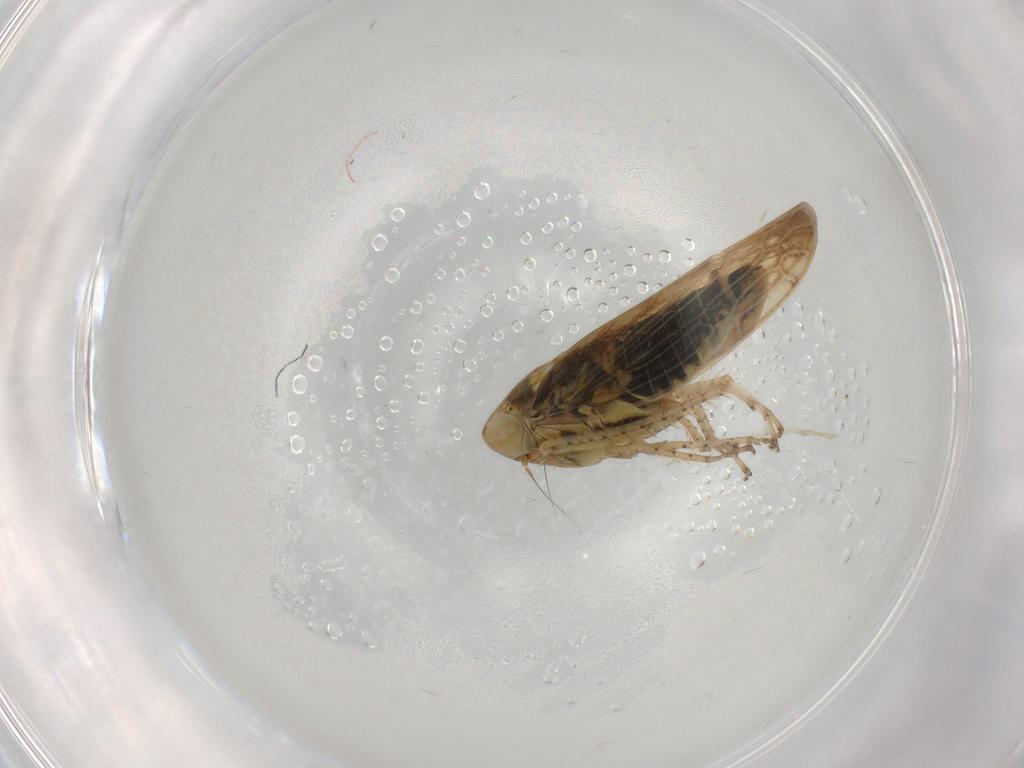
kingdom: Animalia
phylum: Arthropoda
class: Insecta
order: Hemiptera
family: Cicadellidae
